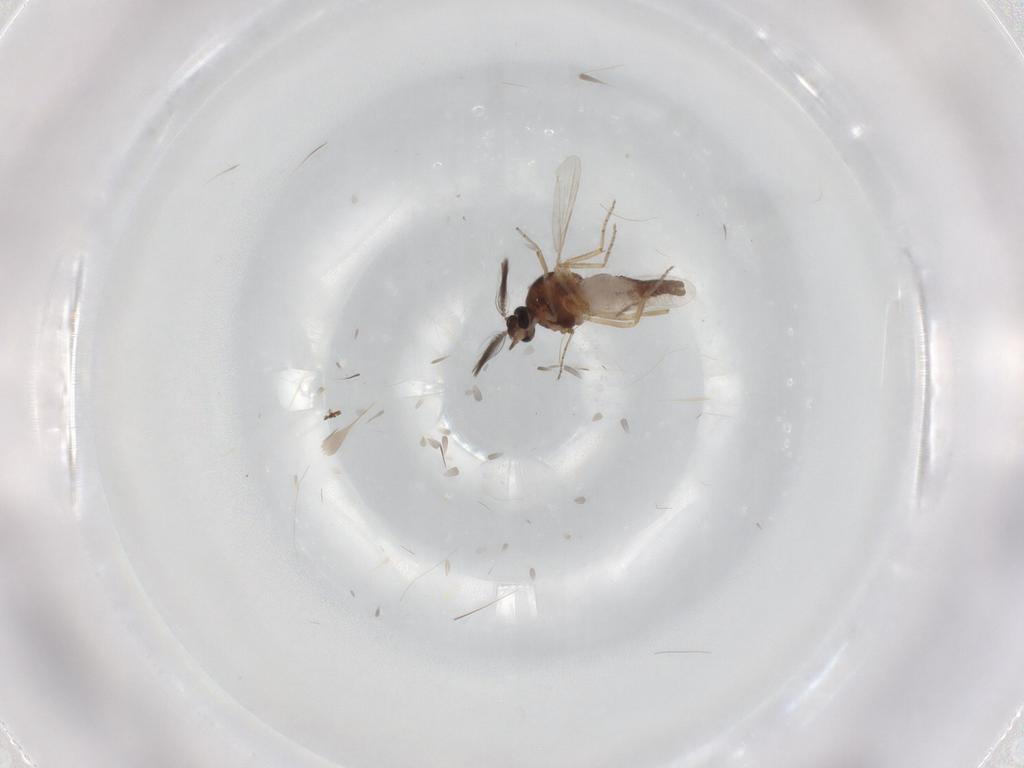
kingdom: Animalia
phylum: Arthropoda
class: Insecta
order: Diptera
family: Ceratopogonidae
